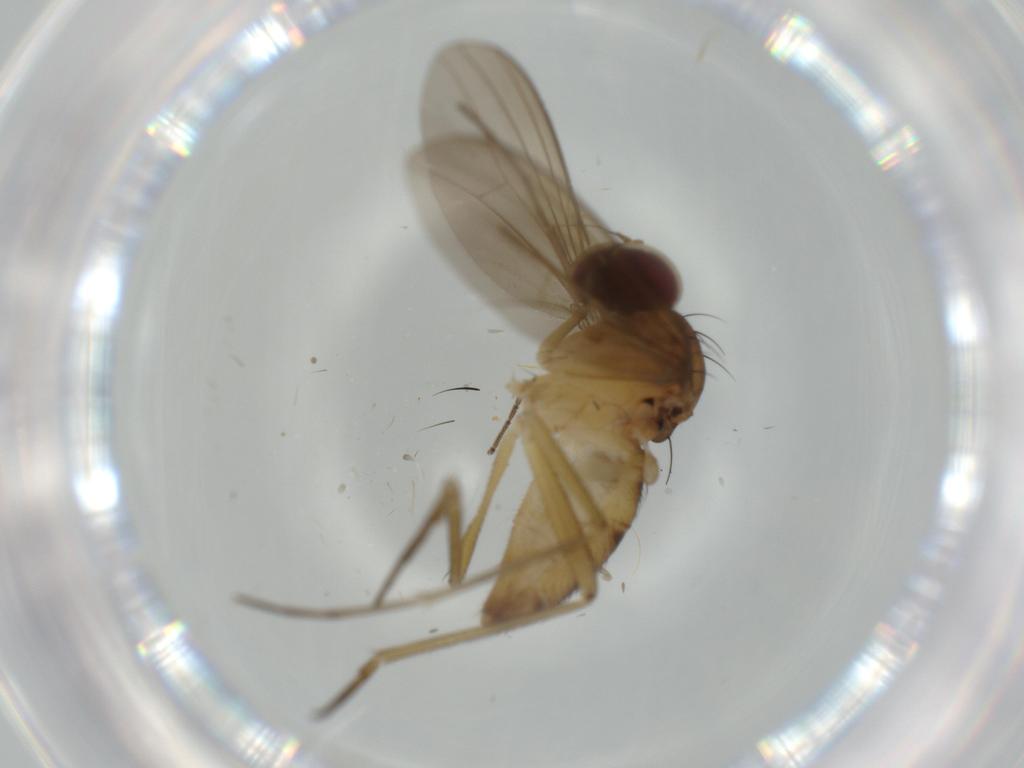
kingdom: Animalia
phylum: Arthropoda
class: Insecta
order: Diptera
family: Dolichopodidae
